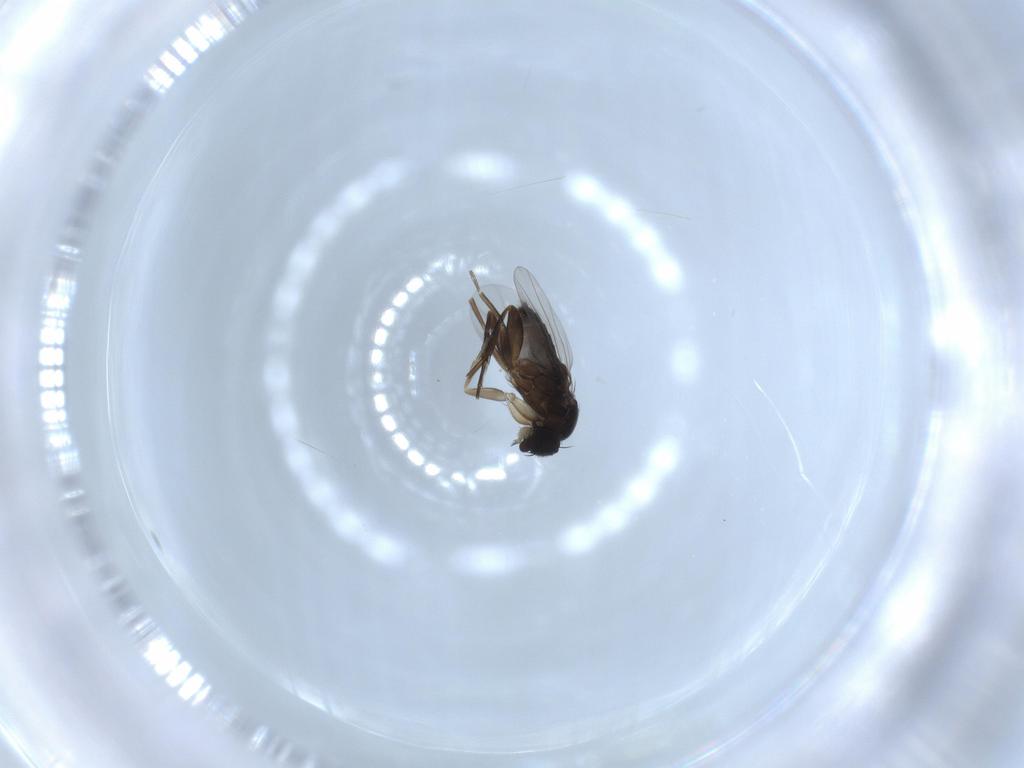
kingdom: Animalia
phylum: Arthropoda
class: Insecta
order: Diptera
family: Phoridae
